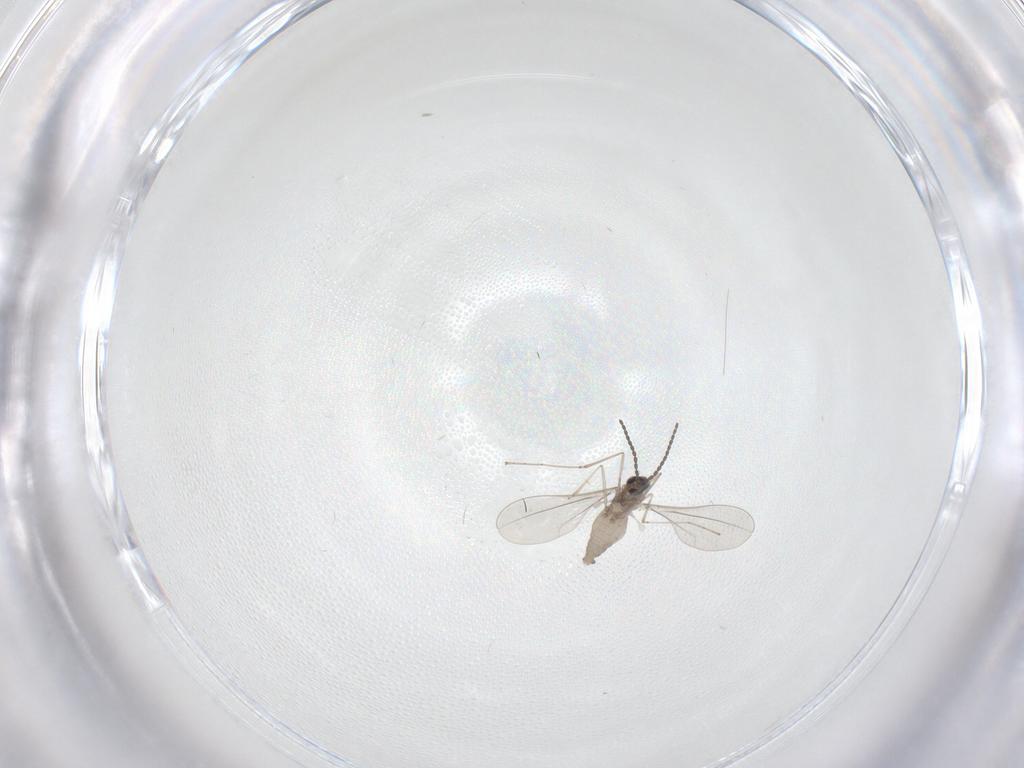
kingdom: Animalia
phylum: Arthropoda
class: Insecta
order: Diptera
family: Cecidomyiidae
